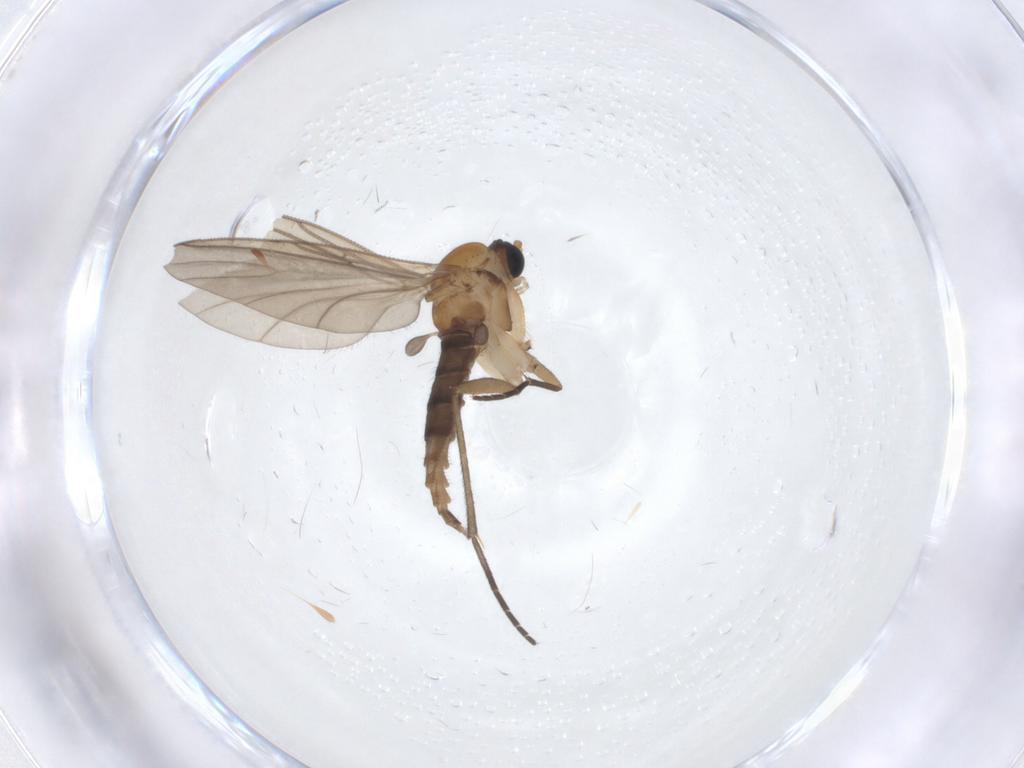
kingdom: Animalia
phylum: Arthropoda
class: Insecta
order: Diptera
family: Sciaridae
